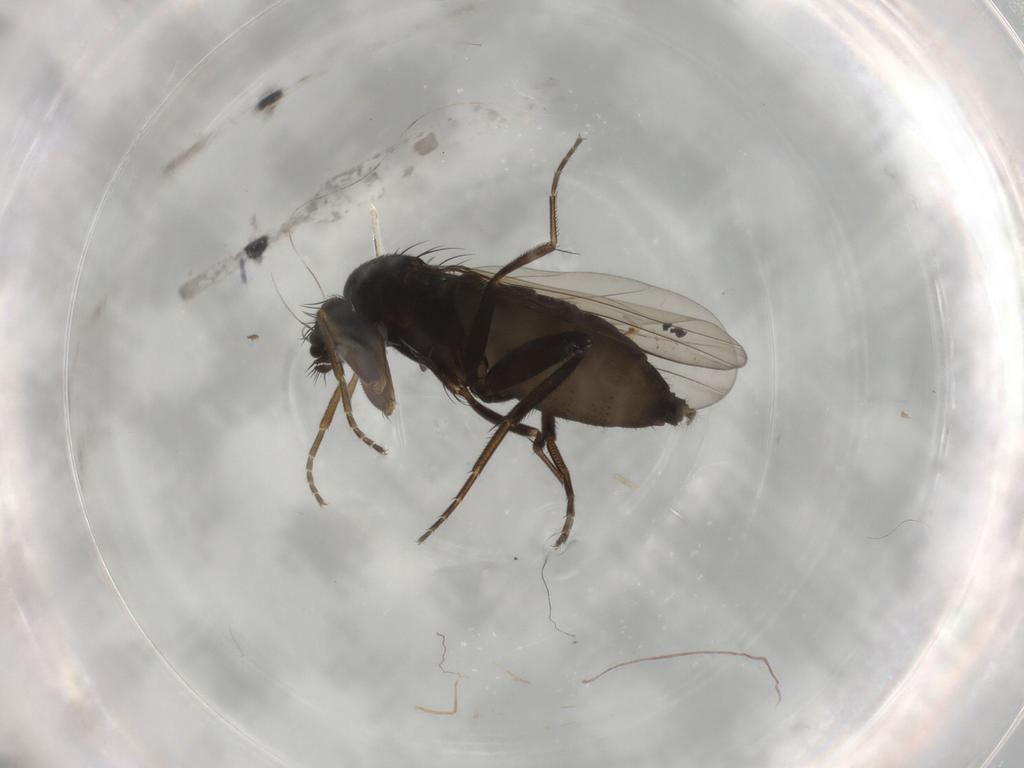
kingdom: Animalia
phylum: Arthropoda
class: Insecta
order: Diptera
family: Phoridae
